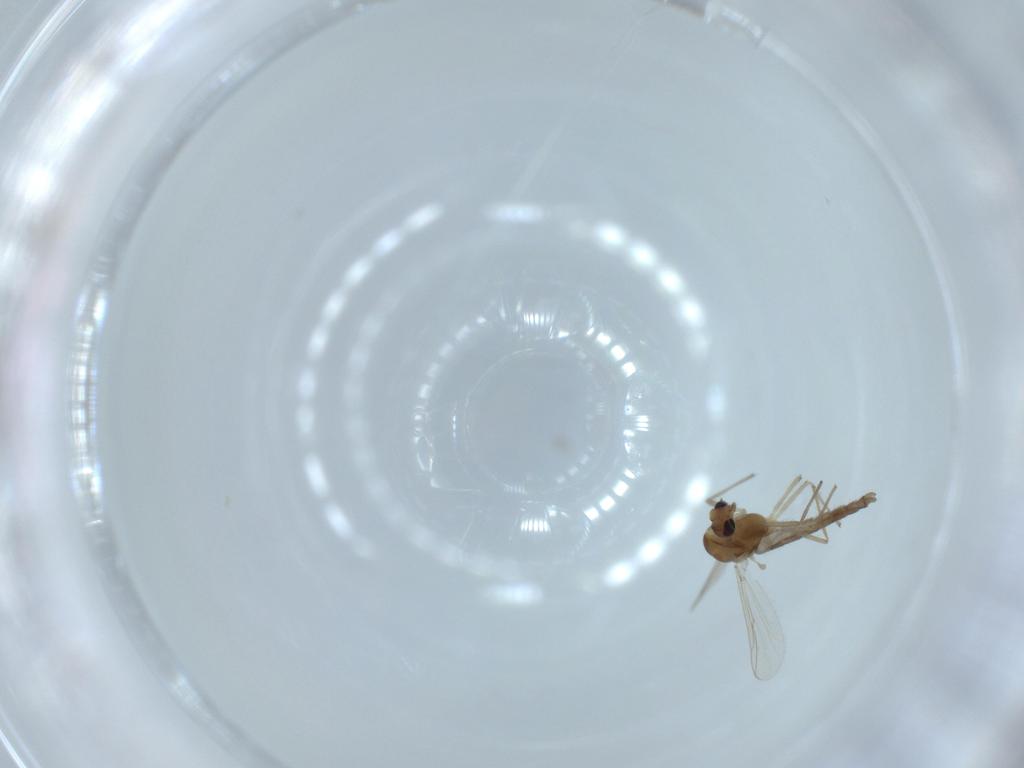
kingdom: Animalia
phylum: Arthropoda
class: Insecta
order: Diptera
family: Chironomidae
